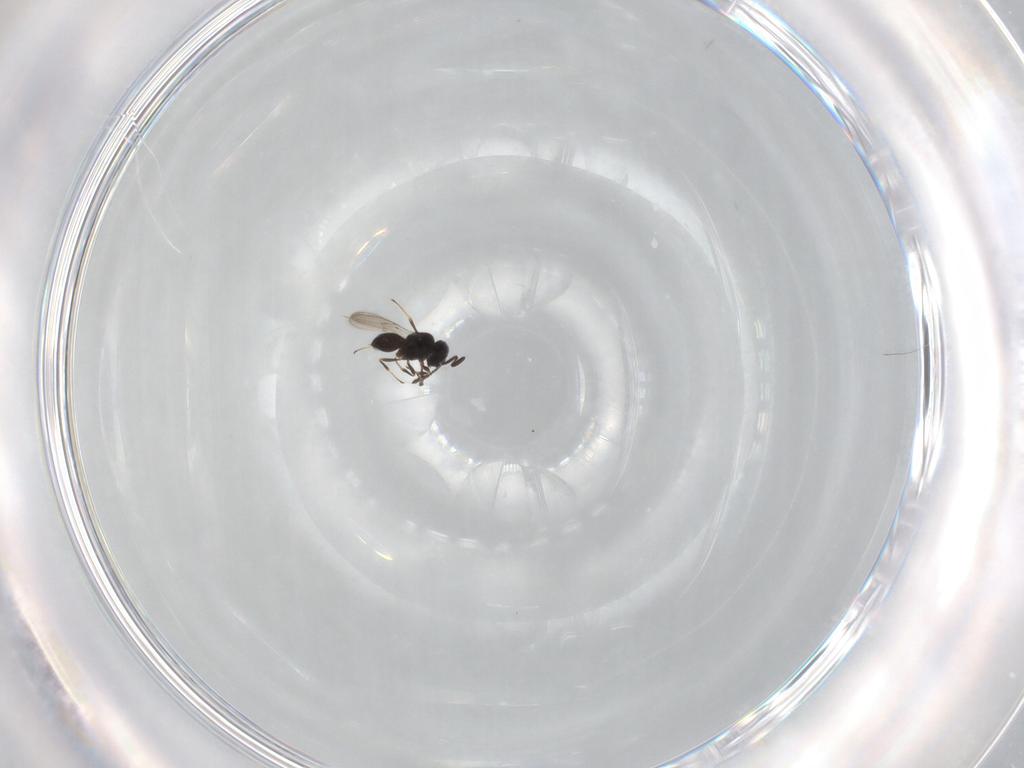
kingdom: Animalia
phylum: Arthropoda
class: Insecta
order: Hymenoptera
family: Scelionidae
